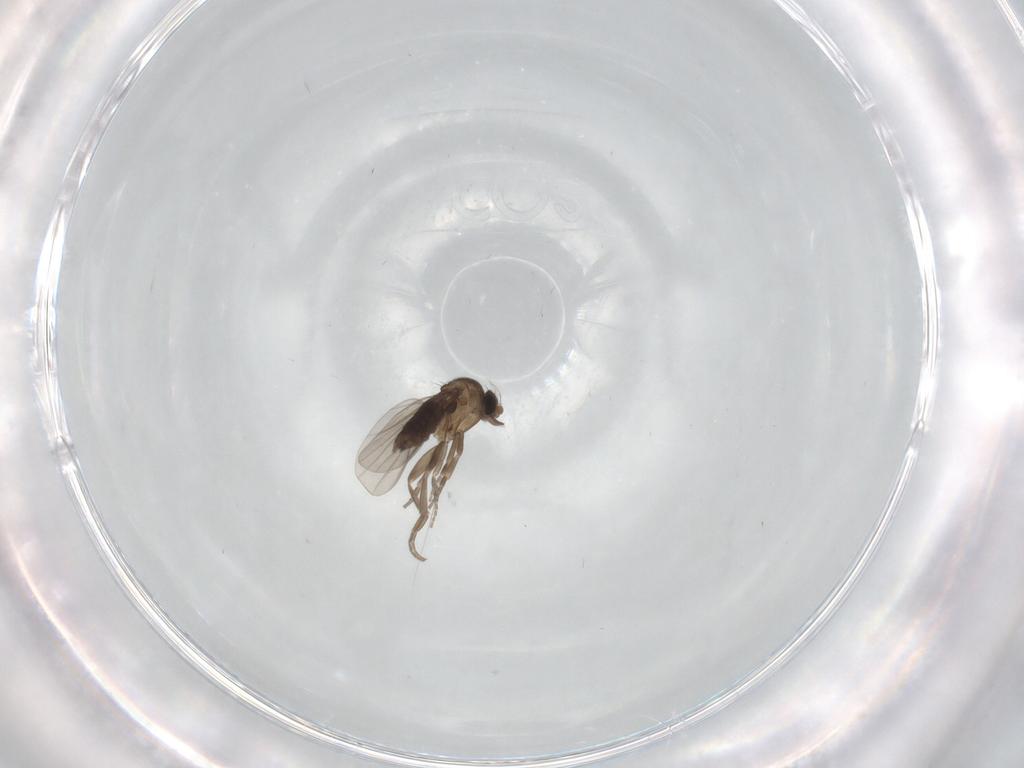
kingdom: Animalia
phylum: Arthropoda
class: Insecta
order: Diptera
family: Phoridae
